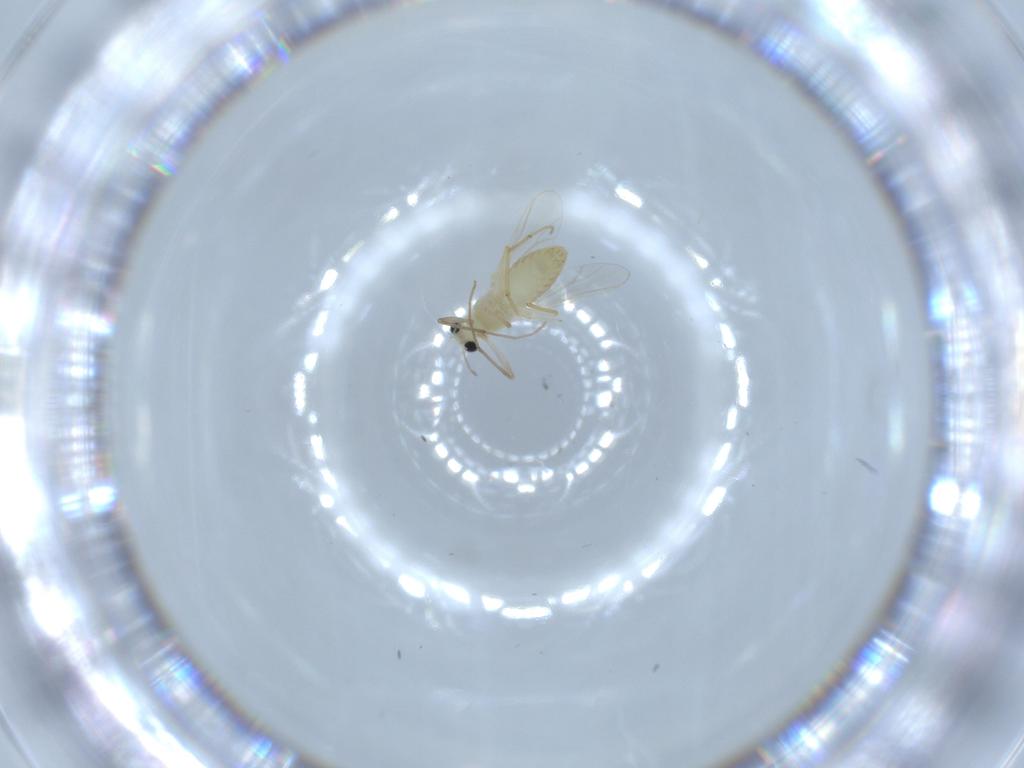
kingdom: Animalia
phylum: Arthropoda
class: Insecta
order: Diptera
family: Chironomidae
